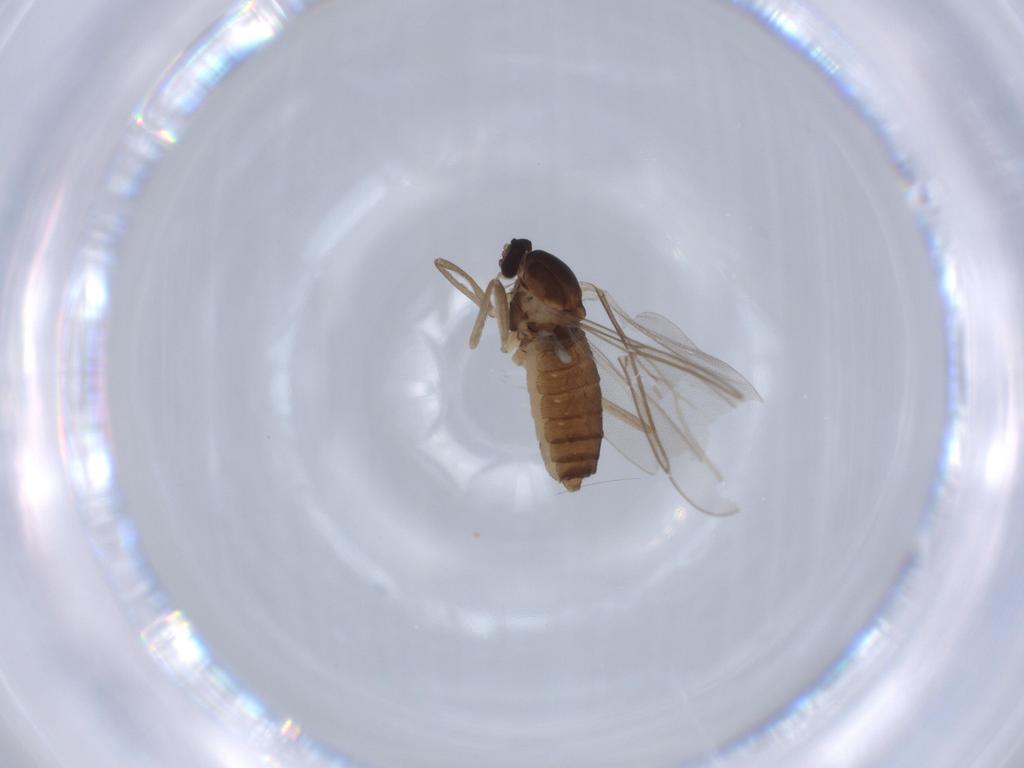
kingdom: Animalia
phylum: Arthropoda
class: Insecta
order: Diptera
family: Cecidomyiidae
